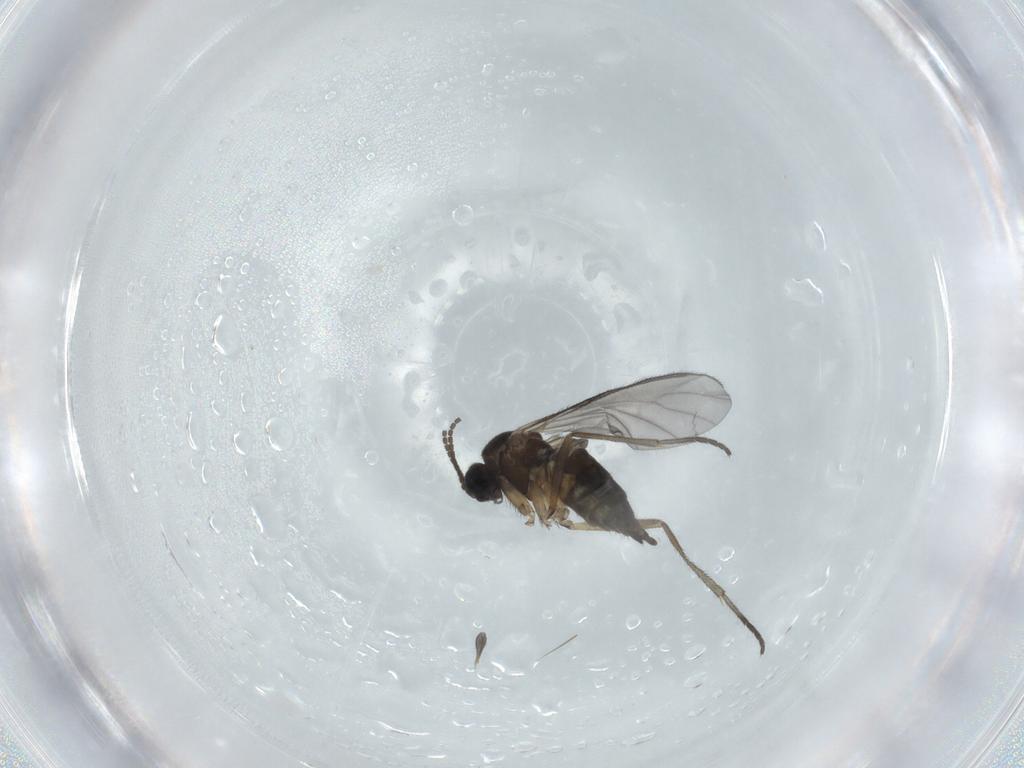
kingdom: Animalia
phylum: Arthropoda
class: Insecta
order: Diptera
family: Sciaridae
